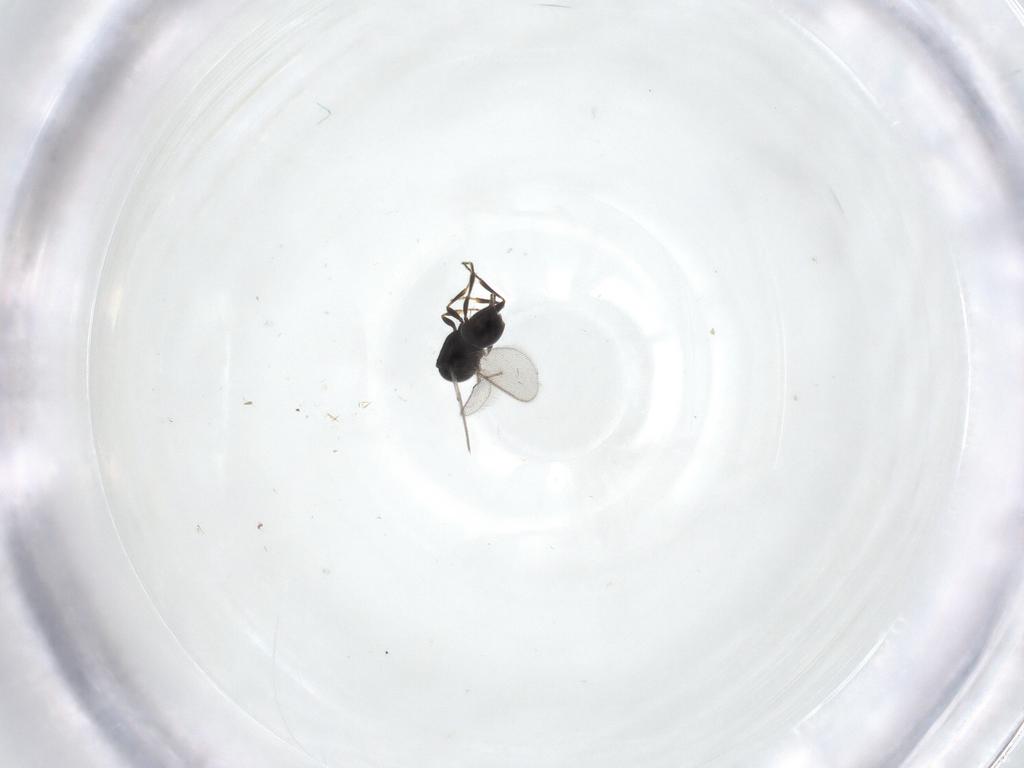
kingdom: Animalia
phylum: Arthropoda
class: Insecta
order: Hymenoptera
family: Scelionidae
